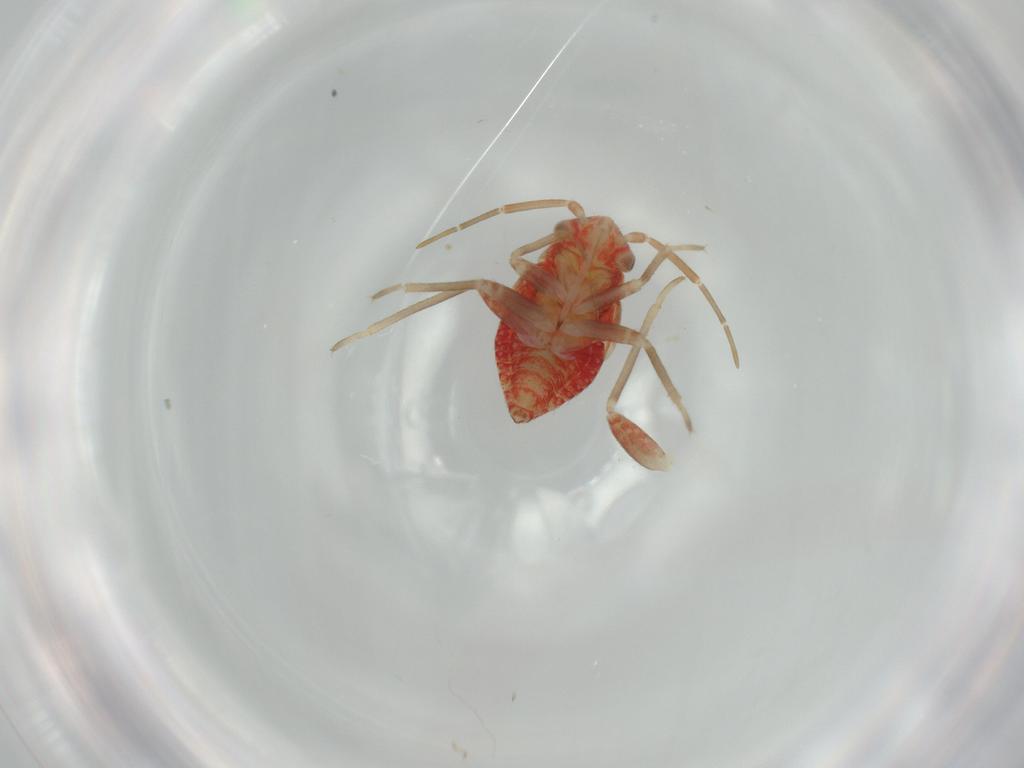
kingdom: Animalia
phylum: Arthropoda
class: Insecta
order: Hemiptera
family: Miridae
